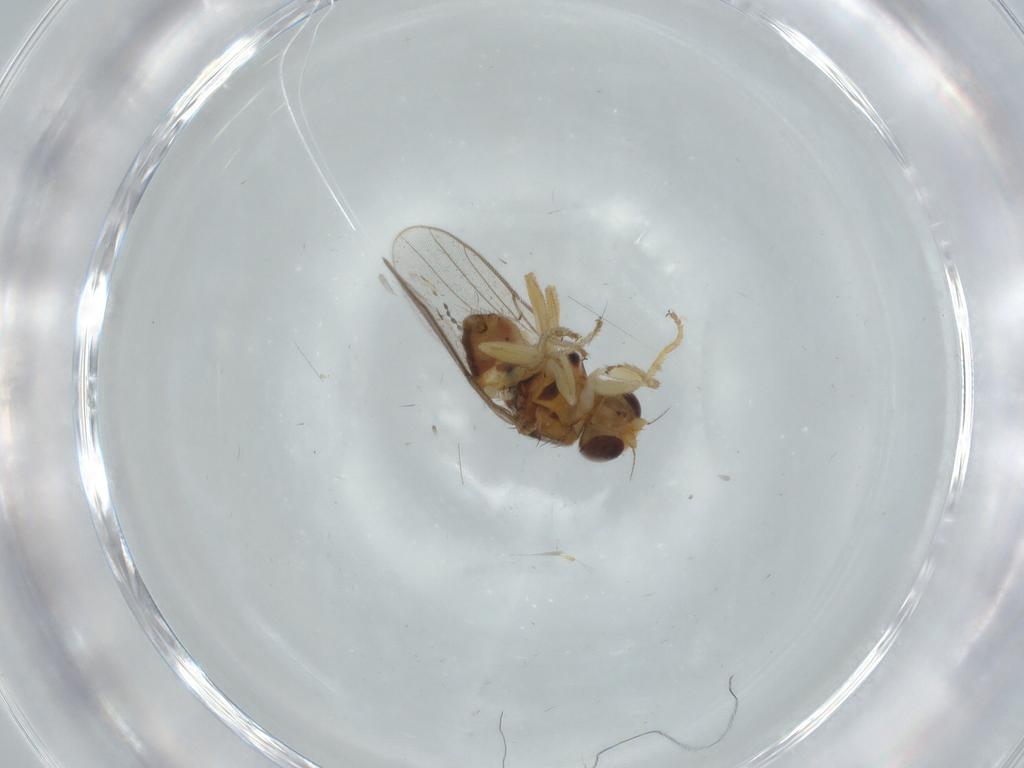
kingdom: Animalia
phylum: Arthropoda
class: Insecta
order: Diptera
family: Chloropidae
